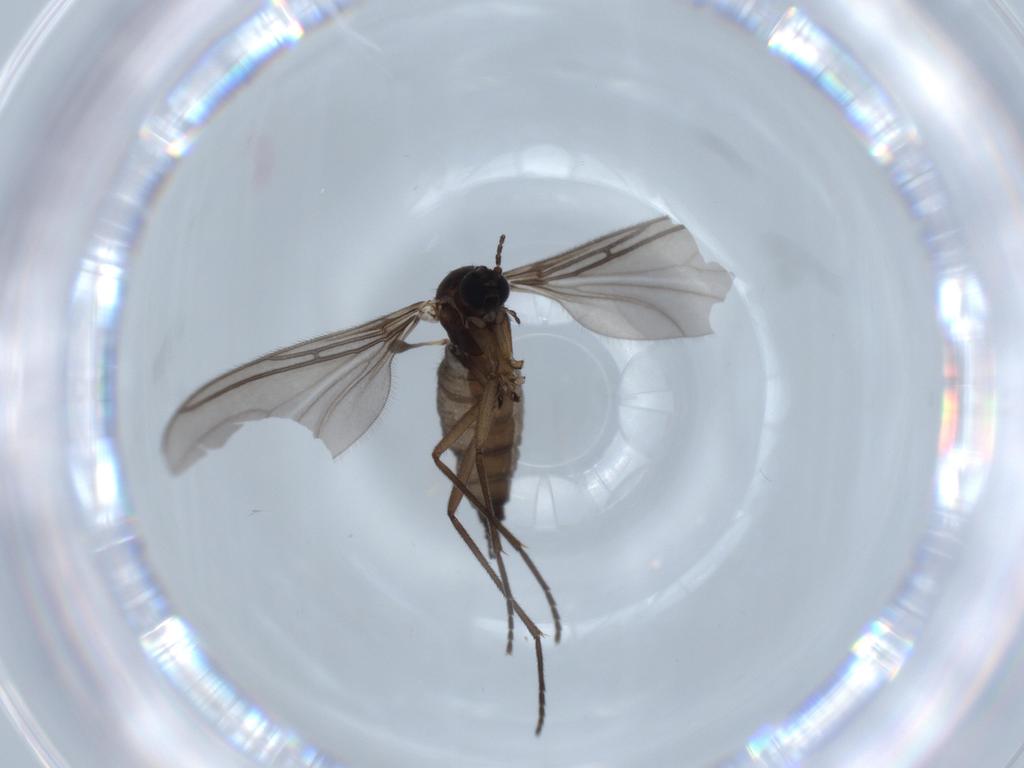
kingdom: Animalia
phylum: Arthropoda
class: Insecta
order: Diptera
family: Sciaridae
